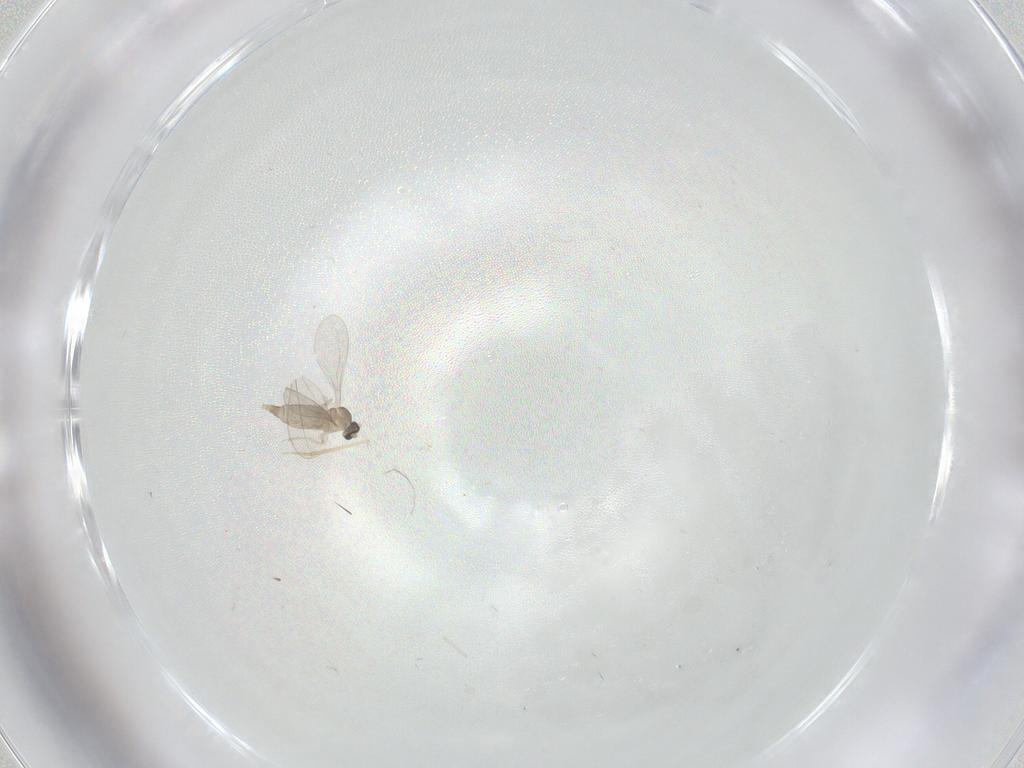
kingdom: Animalia
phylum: Arthropoda
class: Insecta
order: Diptera
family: Cecidomyiidae
